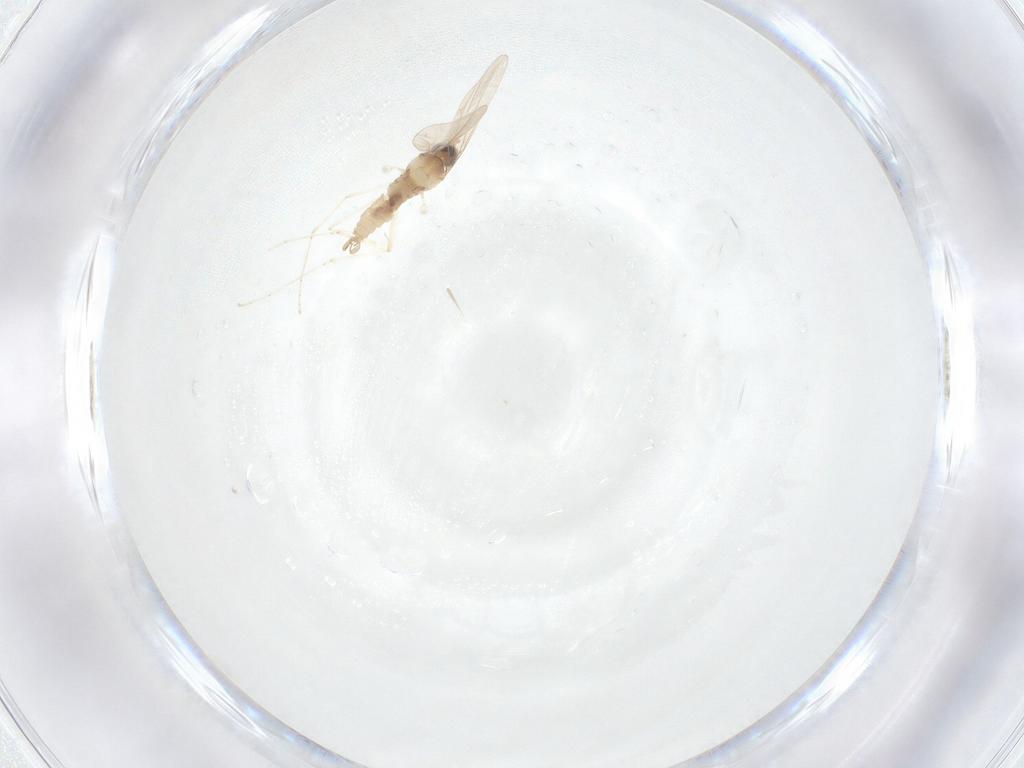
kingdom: Animalia
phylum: Arthropoda
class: Insecta
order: Diptera
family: Cecidomyiidae
